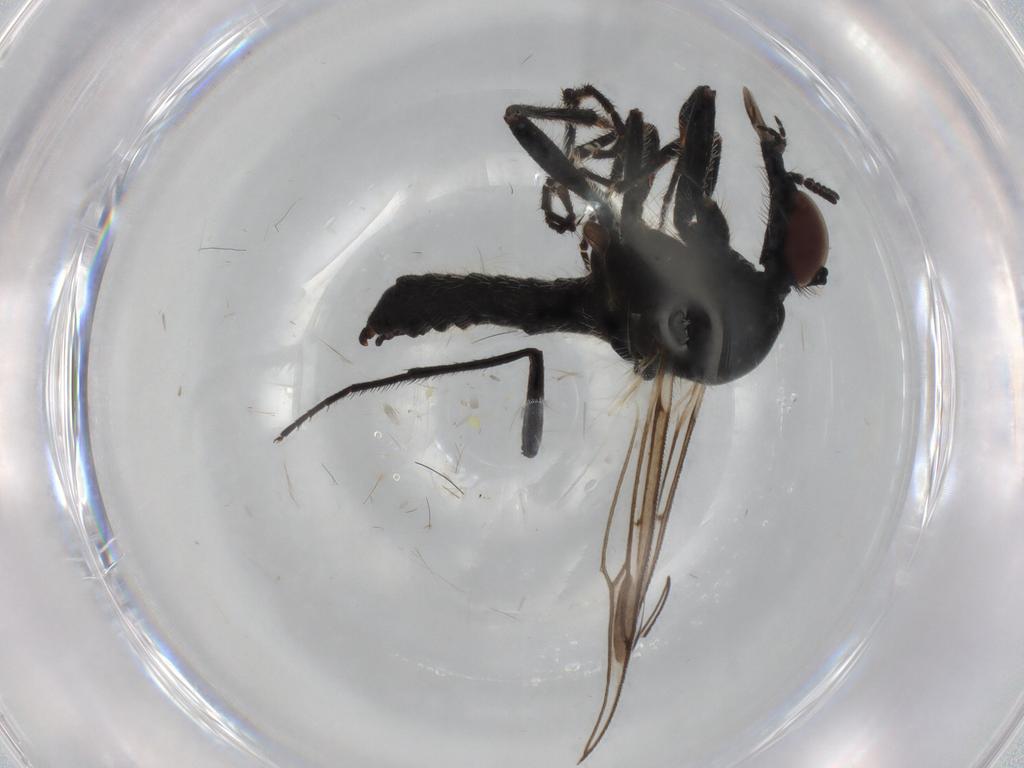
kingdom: Animalia
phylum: Arthropoda
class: Insecta
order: Diptera
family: Bibionidae
